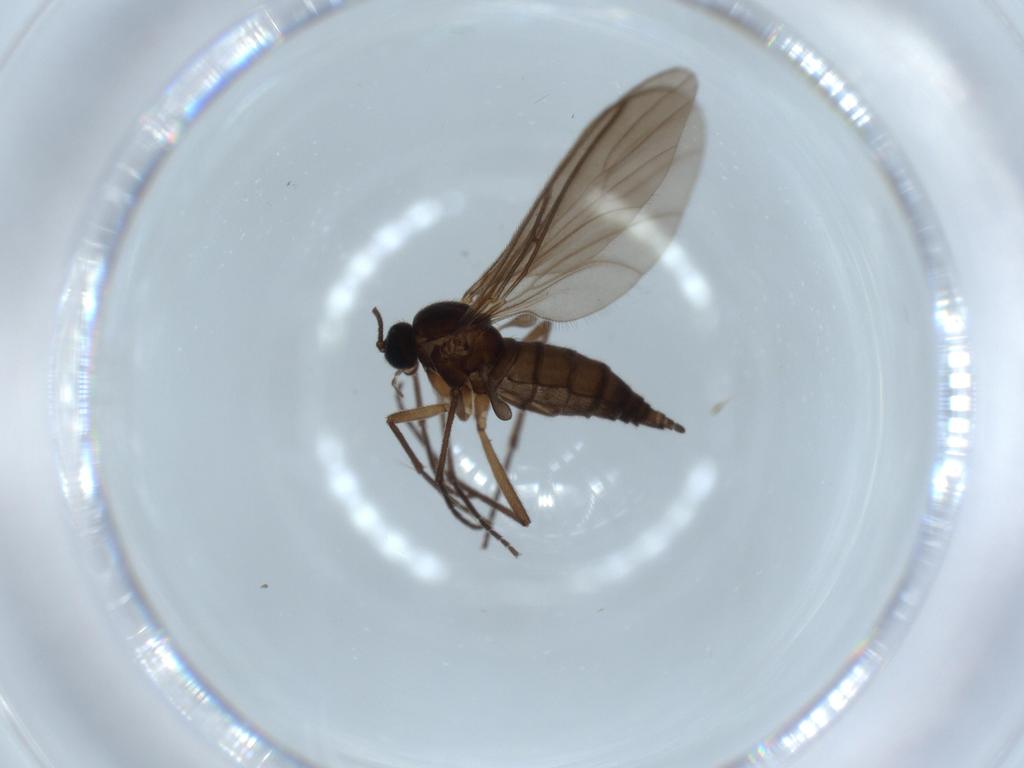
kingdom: Animalia
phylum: Arthropoda
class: Insecta
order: Diptera
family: Sciaridae
